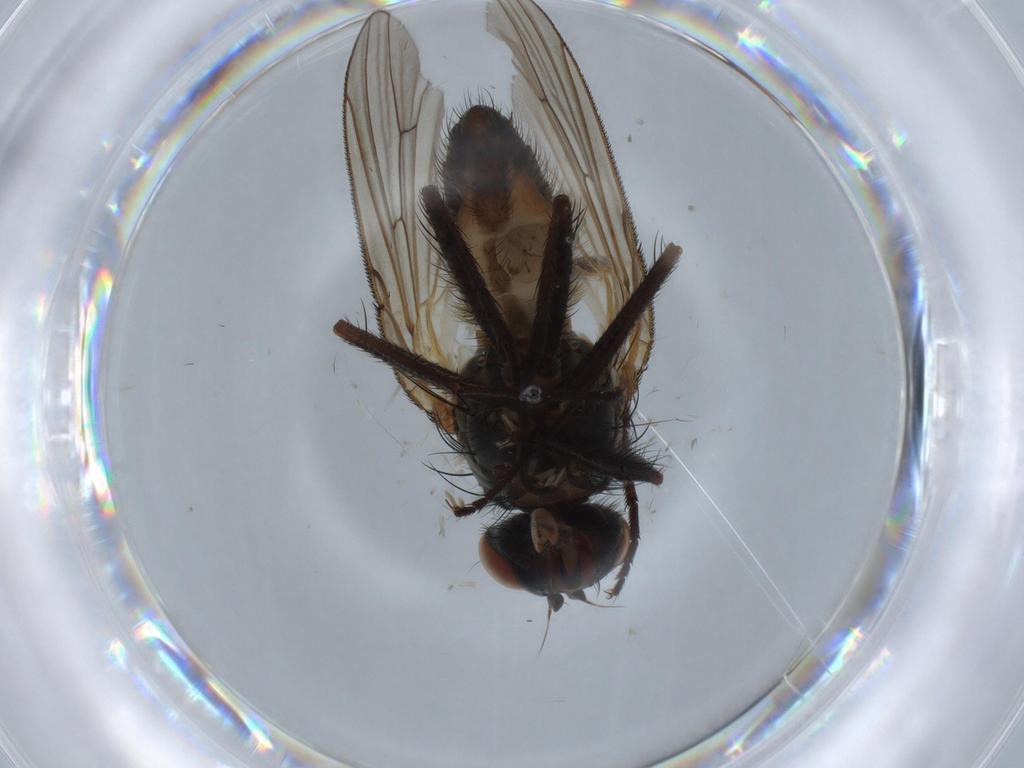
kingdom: Animalia
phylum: Arthropoda
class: Insecta
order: Diptera
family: Anthomyiidae
